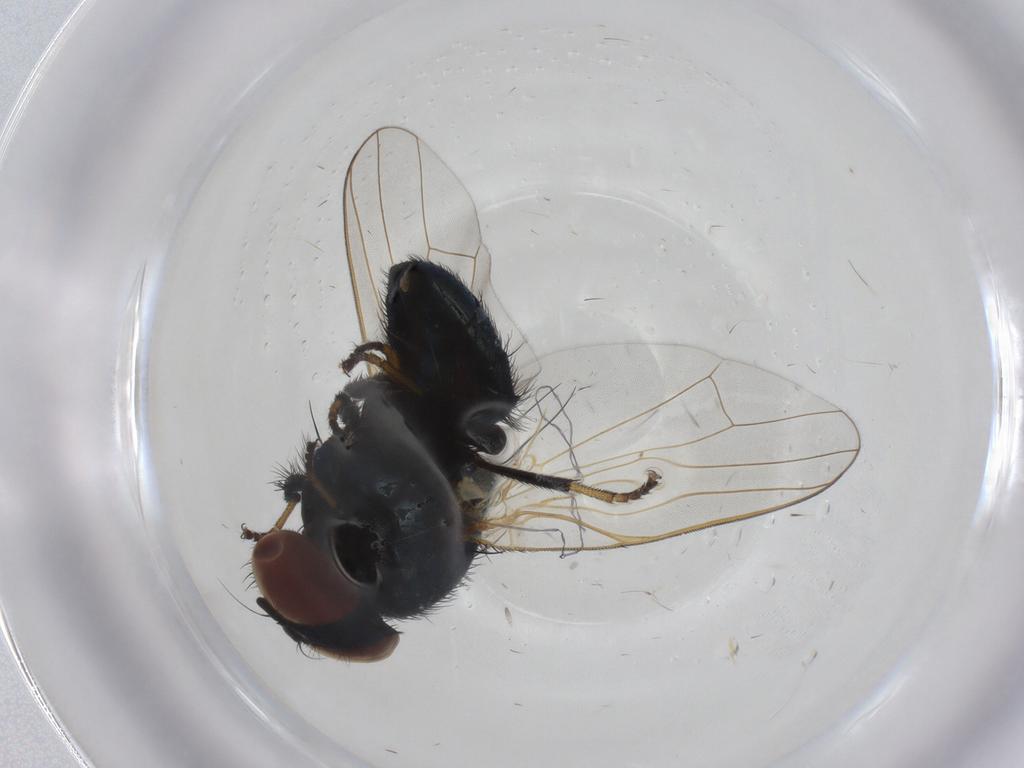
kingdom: Animalia
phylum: Arthropoda
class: Insecta
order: Diptera
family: Lonchaeidae
